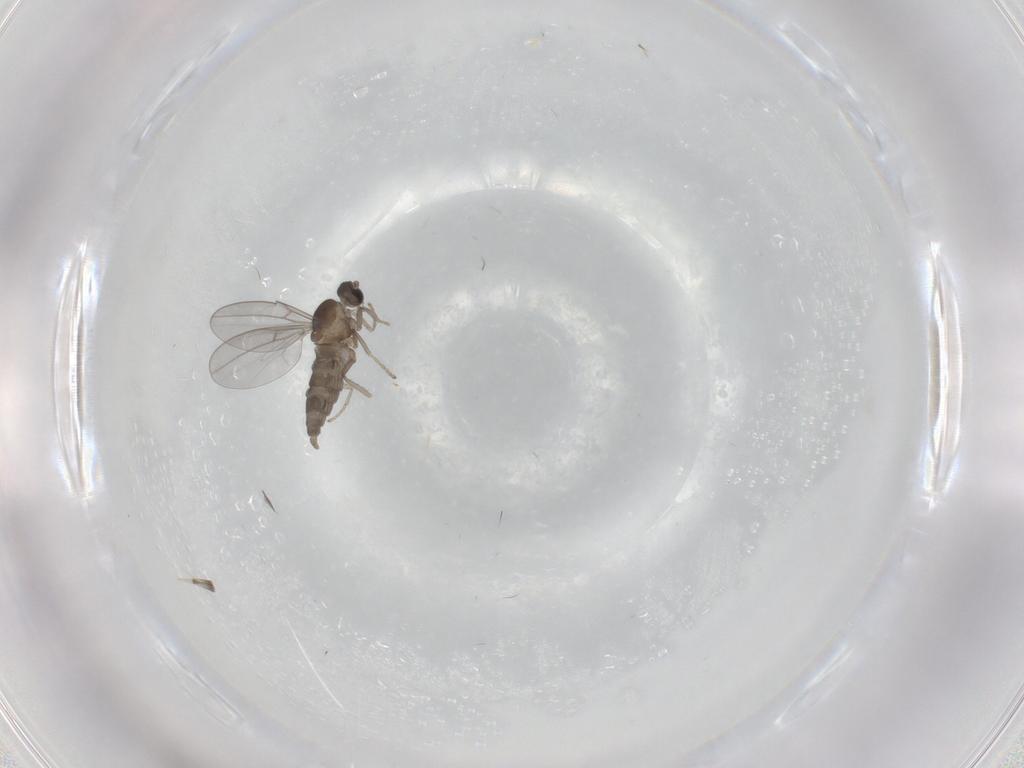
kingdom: Animalia
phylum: Arthropoda
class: Insecta
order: Diptera
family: Cecidomyiidae
